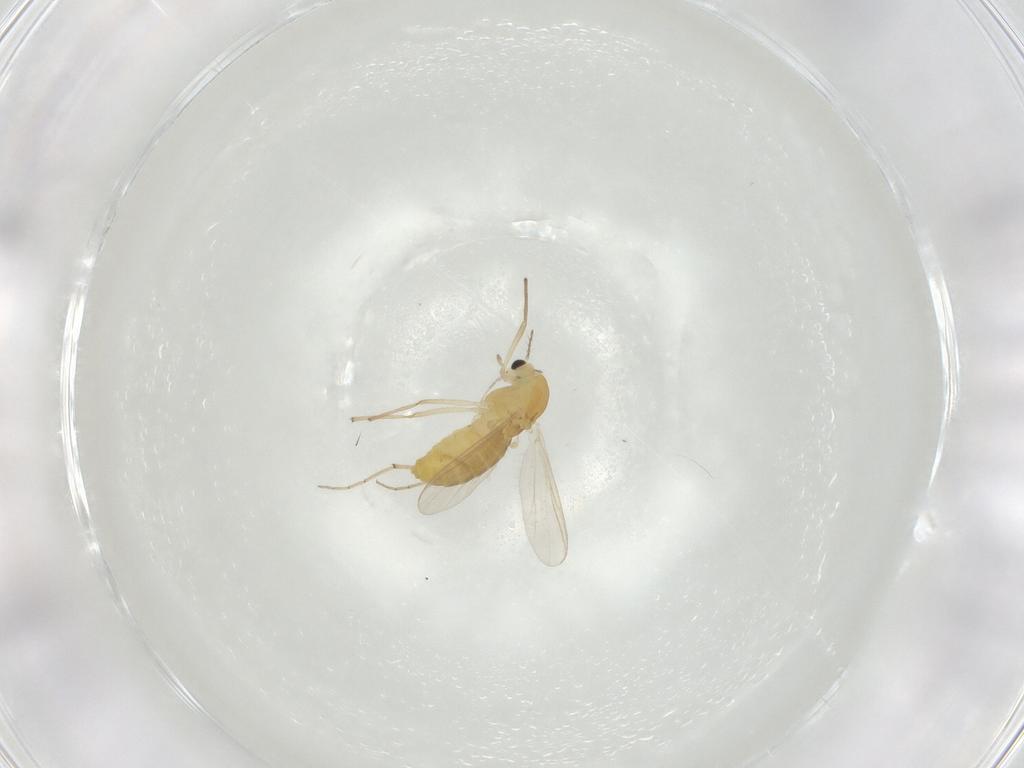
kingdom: Animalia
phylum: Arthropoda
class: Insecta
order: Diptera
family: Chironomidae
